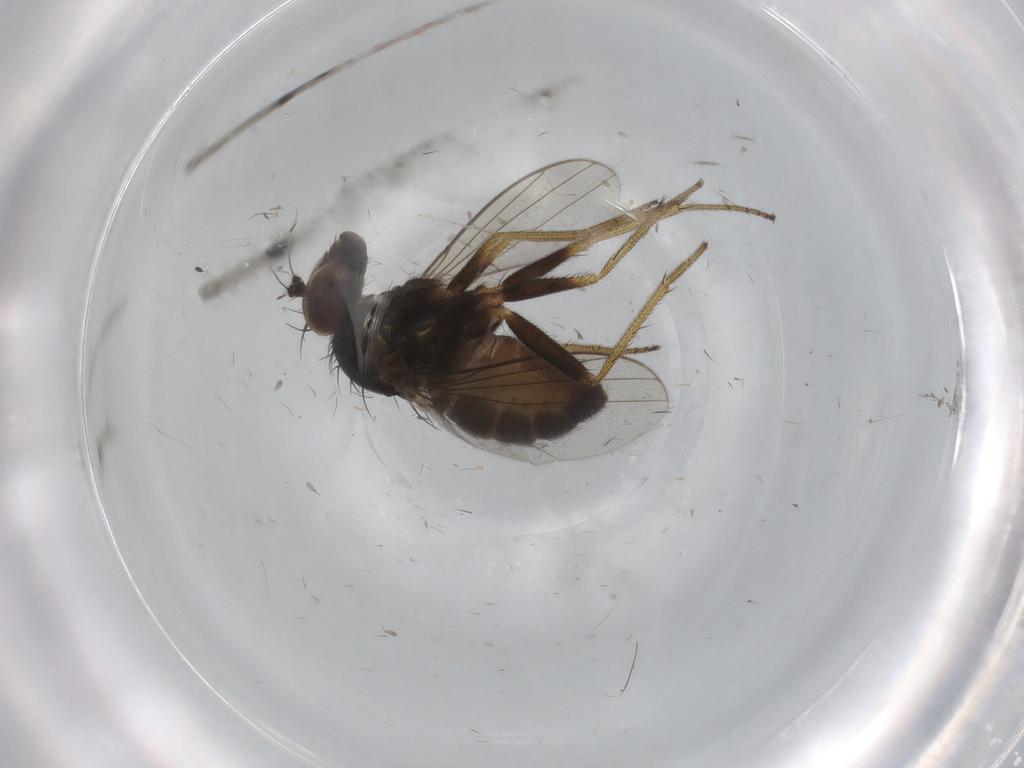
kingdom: Animalia
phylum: Arthropoda
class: Insecta
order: Diptera
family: Dolichopodidae
